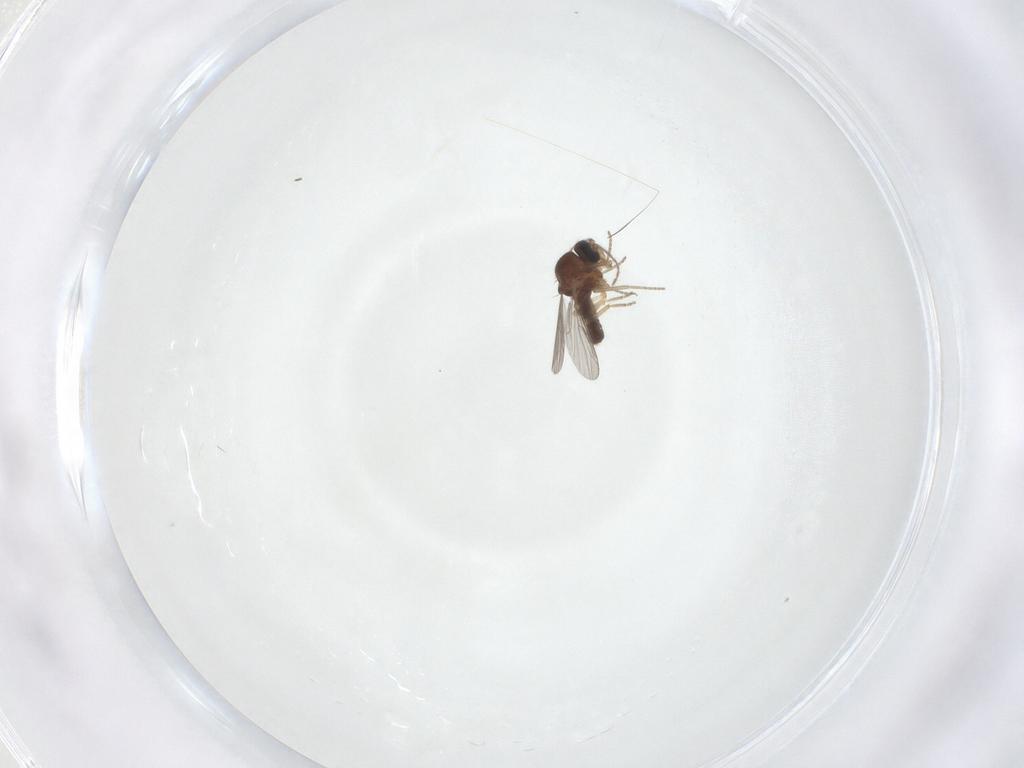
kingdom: Animalia
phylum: Arthropoda
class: Insecta
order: Diptera
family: Ceratopogonidae
